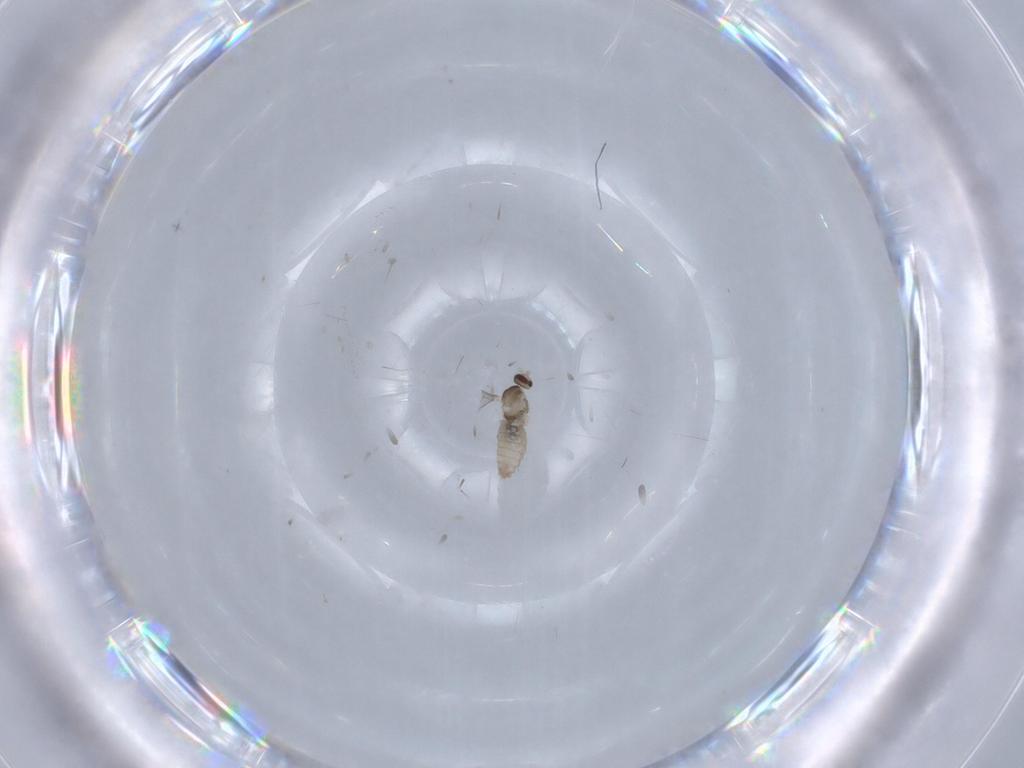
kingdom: Animalia
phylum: Arthropoda
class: Insecta
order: Diptera
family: Cecidomyiidae
